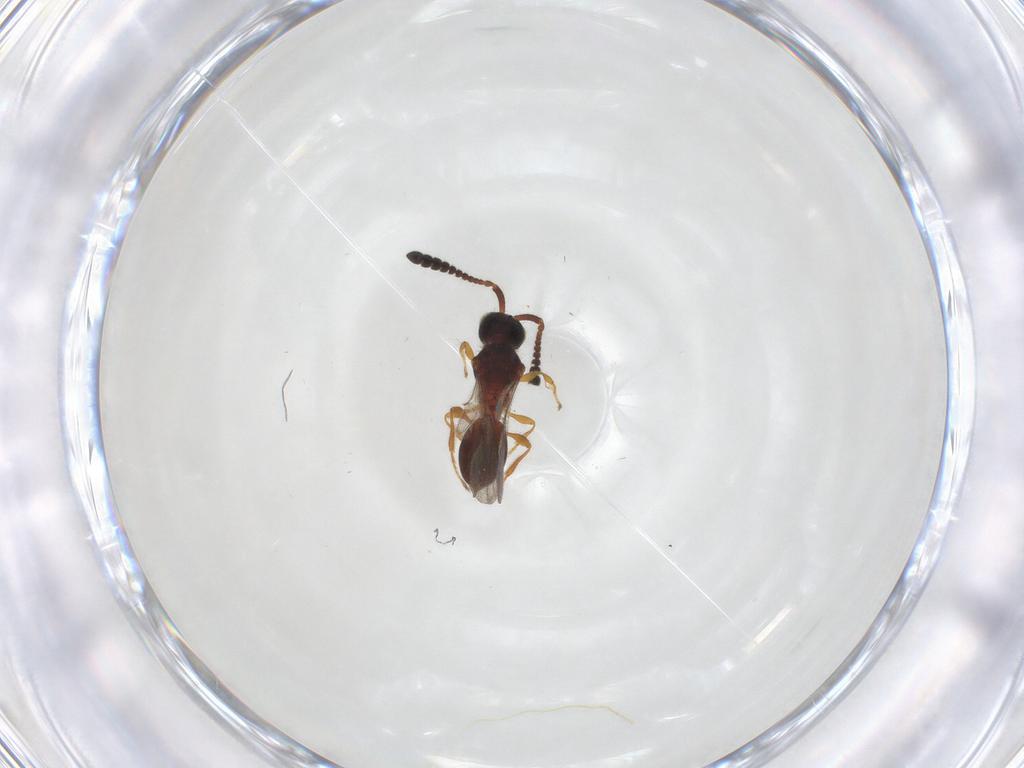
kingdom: Animalia
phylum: Arthropoda
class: Insecta
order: Hymenoptera
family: Diapriidae
